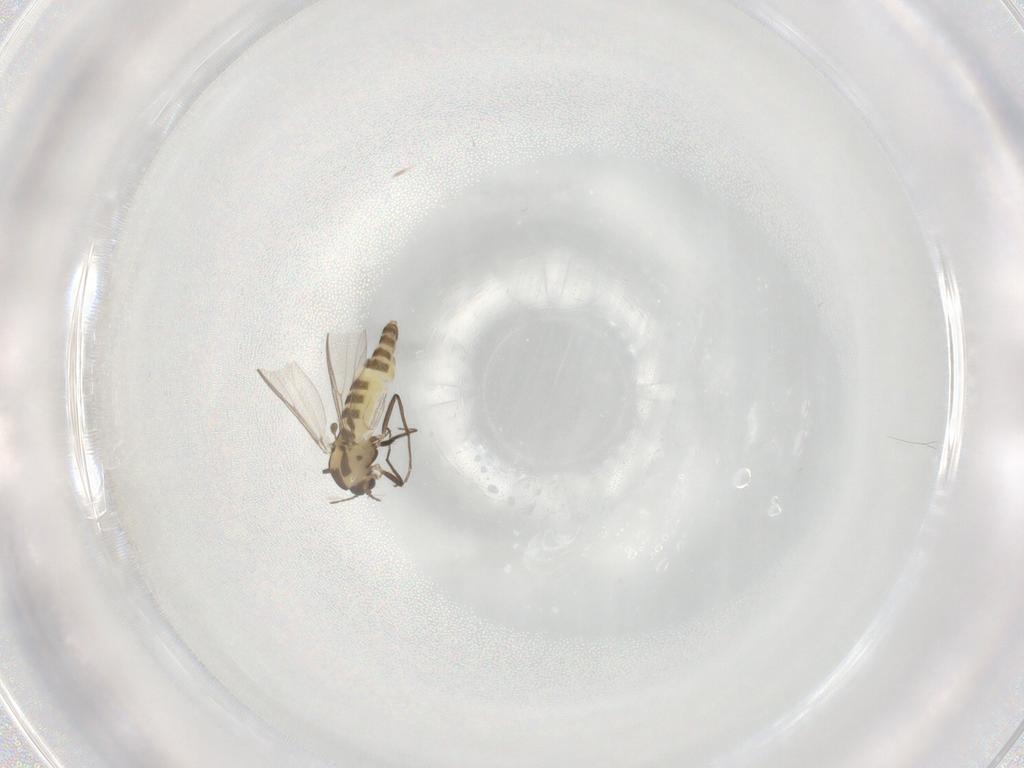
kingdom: Animalia
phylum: Arthropoda
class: Insecta
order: Diptera
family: Chironomidae
